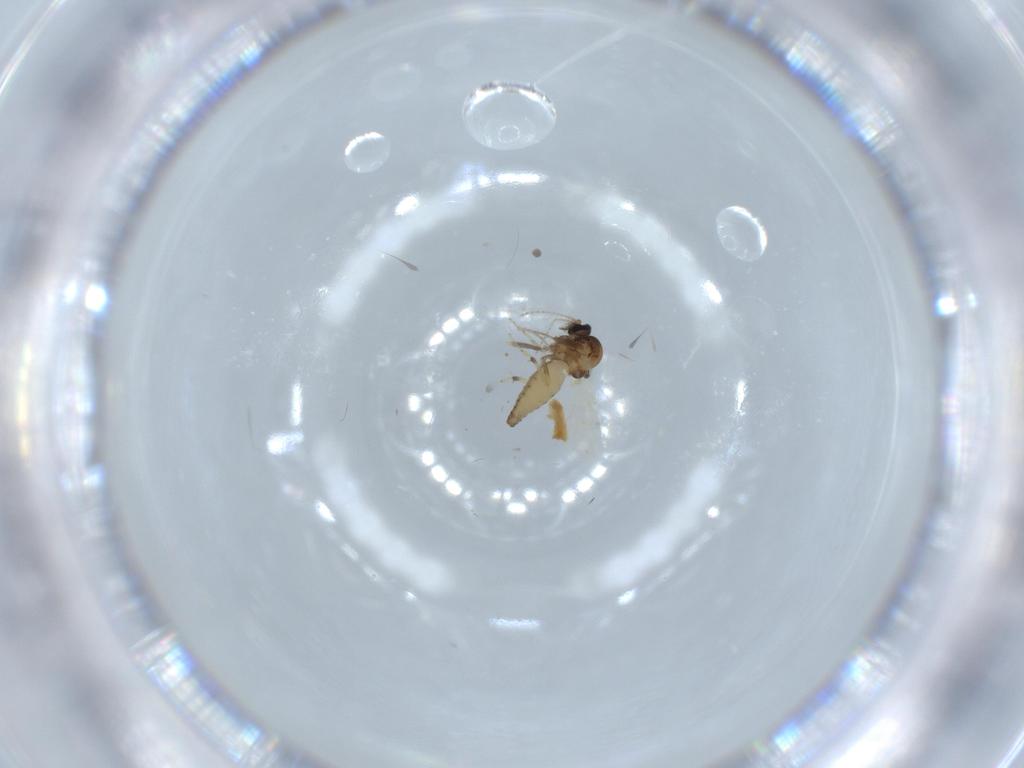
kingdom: Animalia
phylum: Arthropoda
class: Insecta
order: Diptera
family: Ceratopogonidae
